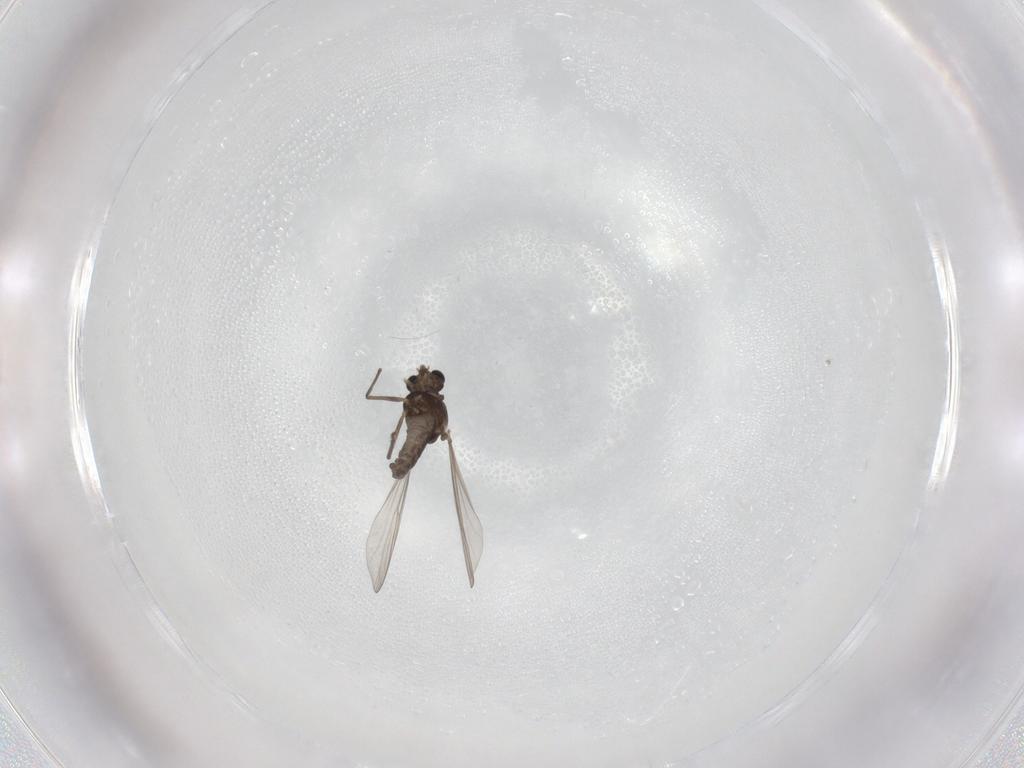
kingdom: Animalia
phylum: Arthropoda
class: Insecta
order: Diptera
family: Chironomidae
